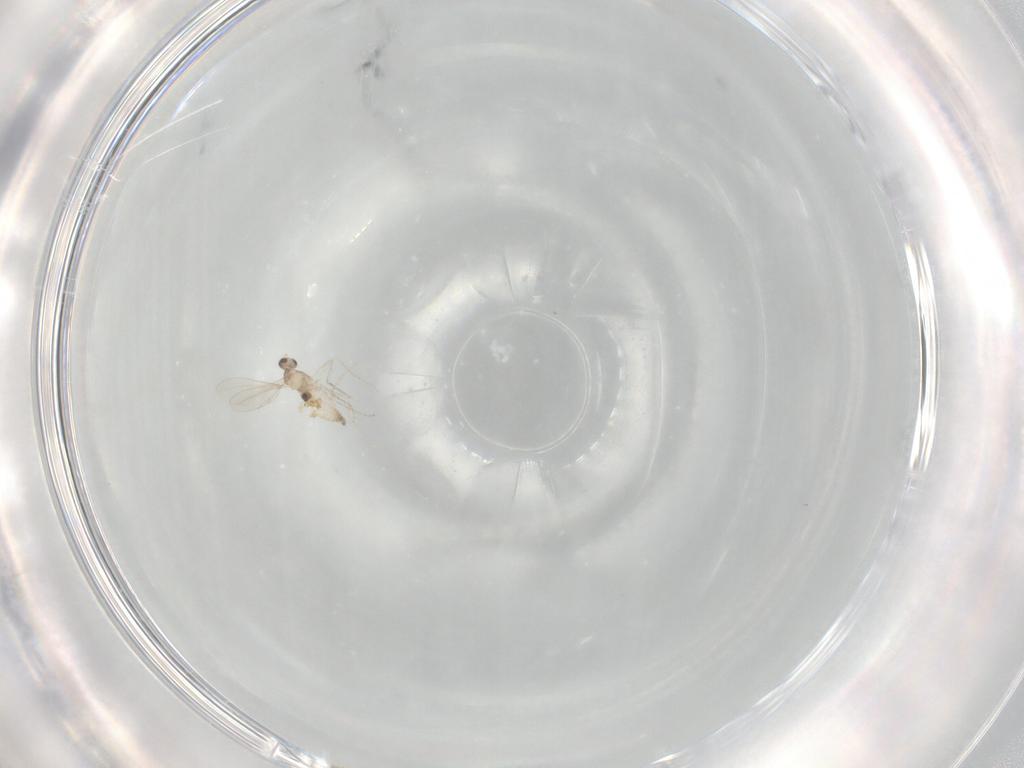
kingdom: Animalia
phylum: Arthropoda
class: Insecta
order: Diptera
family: Cecidomyiidae
